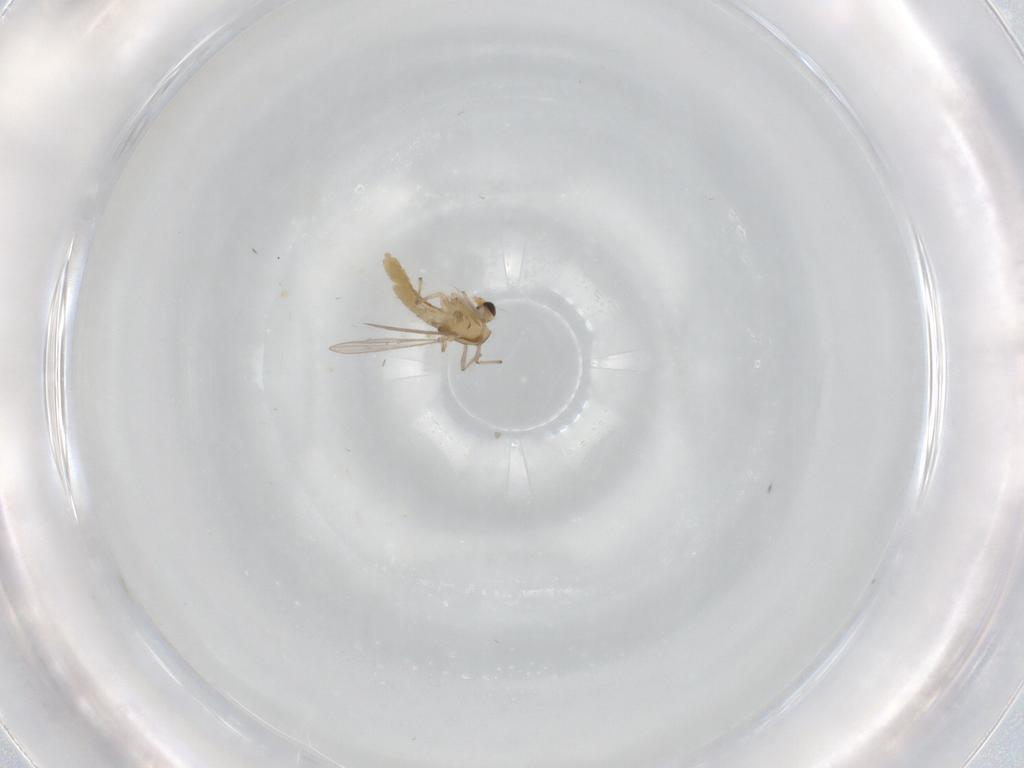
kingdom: Animalia
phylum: Arthropoda
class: Insecta
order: Diptera
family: Chironomidae
